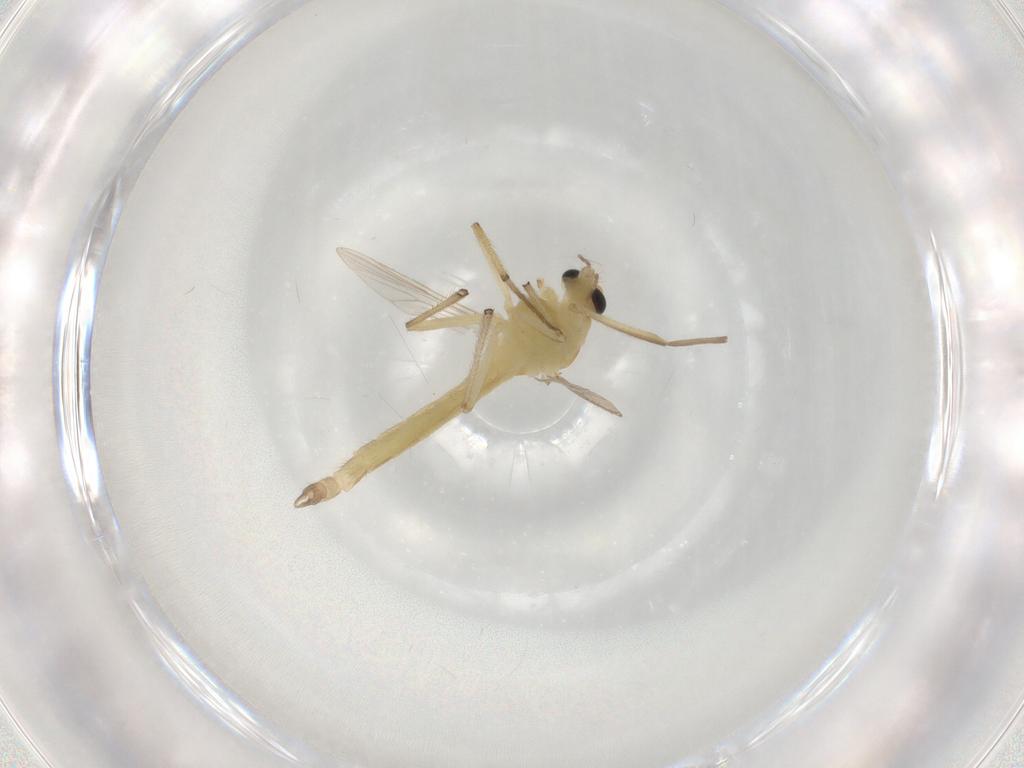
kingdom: Animalia
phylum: Arthropoda
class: Insecta
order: Diptera
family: Chironomidae
